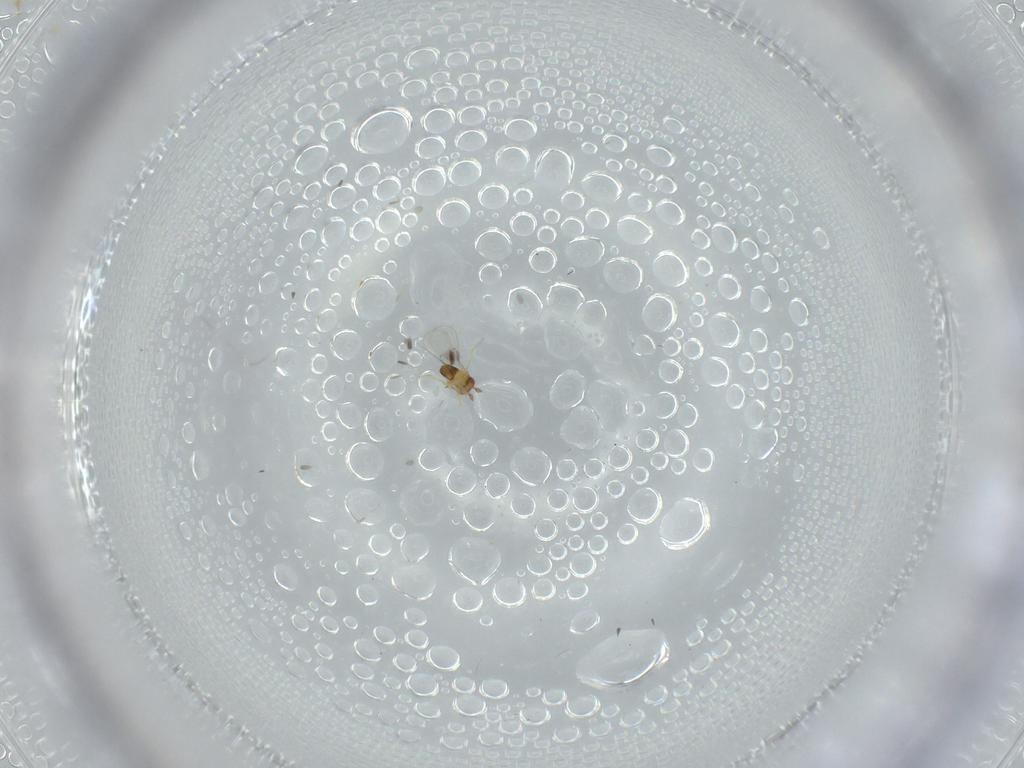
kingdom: Animalia
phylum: Arthropoda
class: Insecta
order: Hymenoptera
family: Trichogrammatidae
